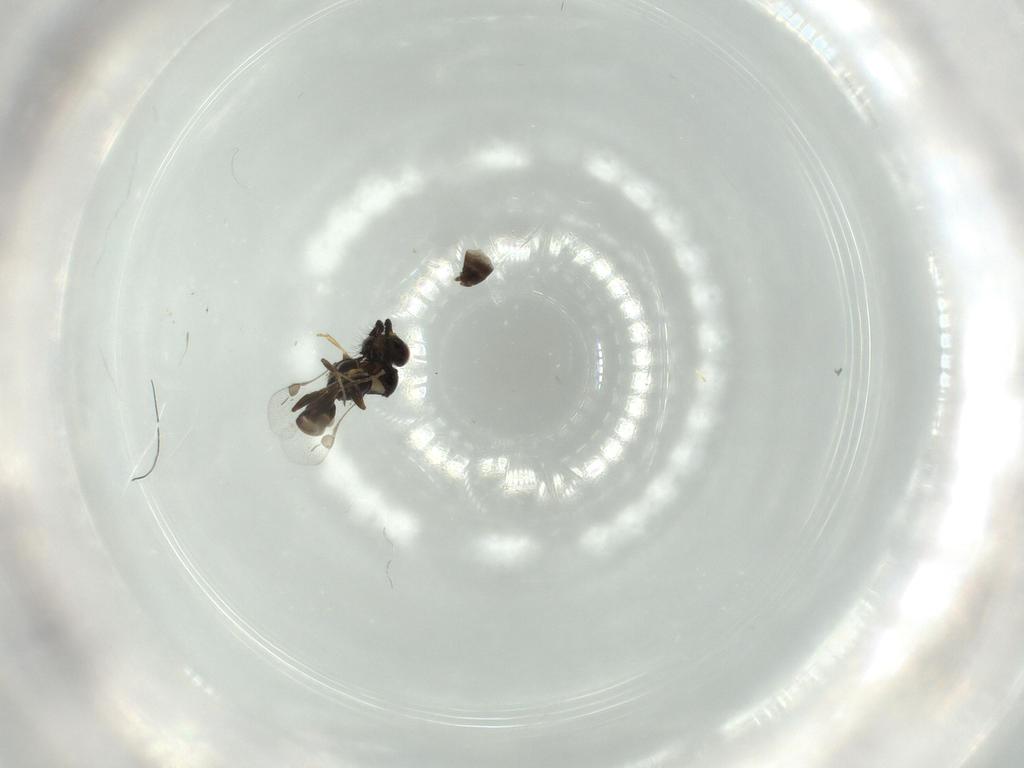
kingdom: Animalia
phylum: Arthropoda
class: Insecta
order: Hymenoptera
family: Megaspilidae
